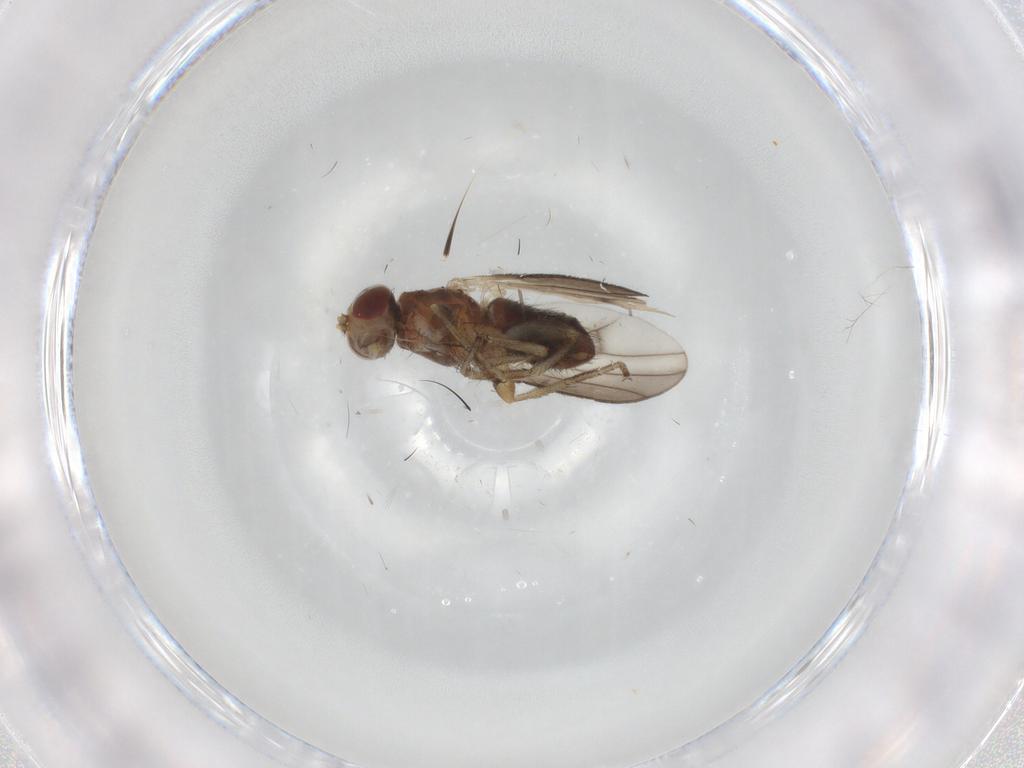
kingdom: Animalia
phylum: Arthropoda
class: Insecta
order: Diptera
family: Heleomyzidae
